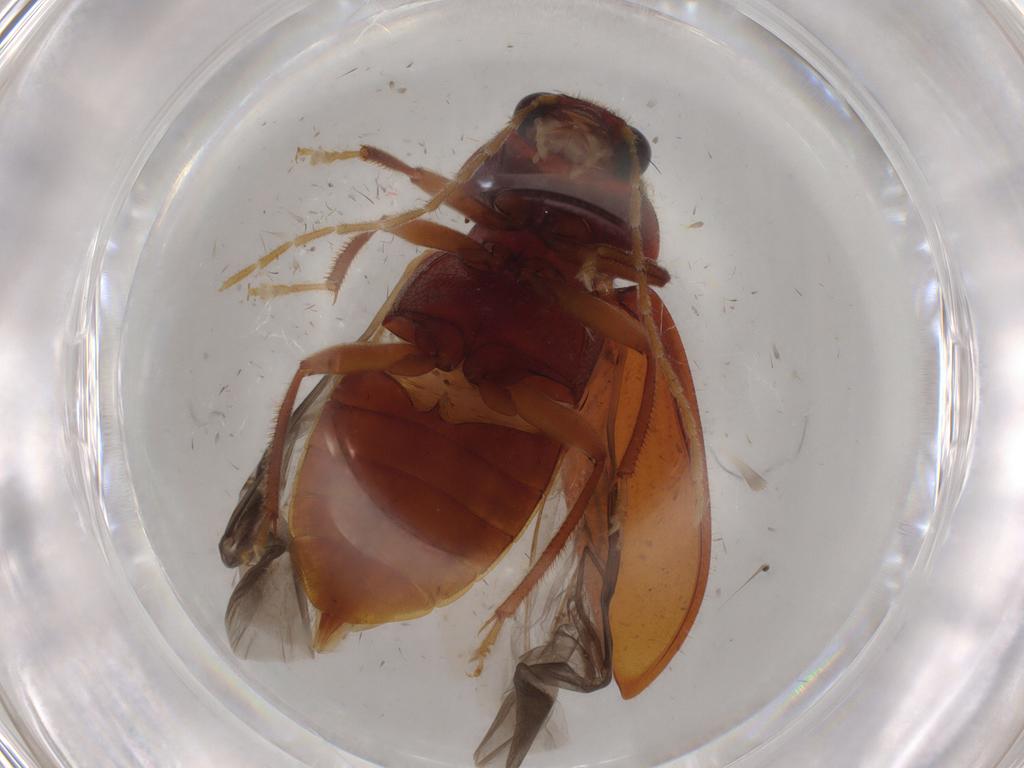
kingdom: Animalia
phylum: Arthropoda
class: Insecta
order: Coleoptera
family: Ptilodactylidae
